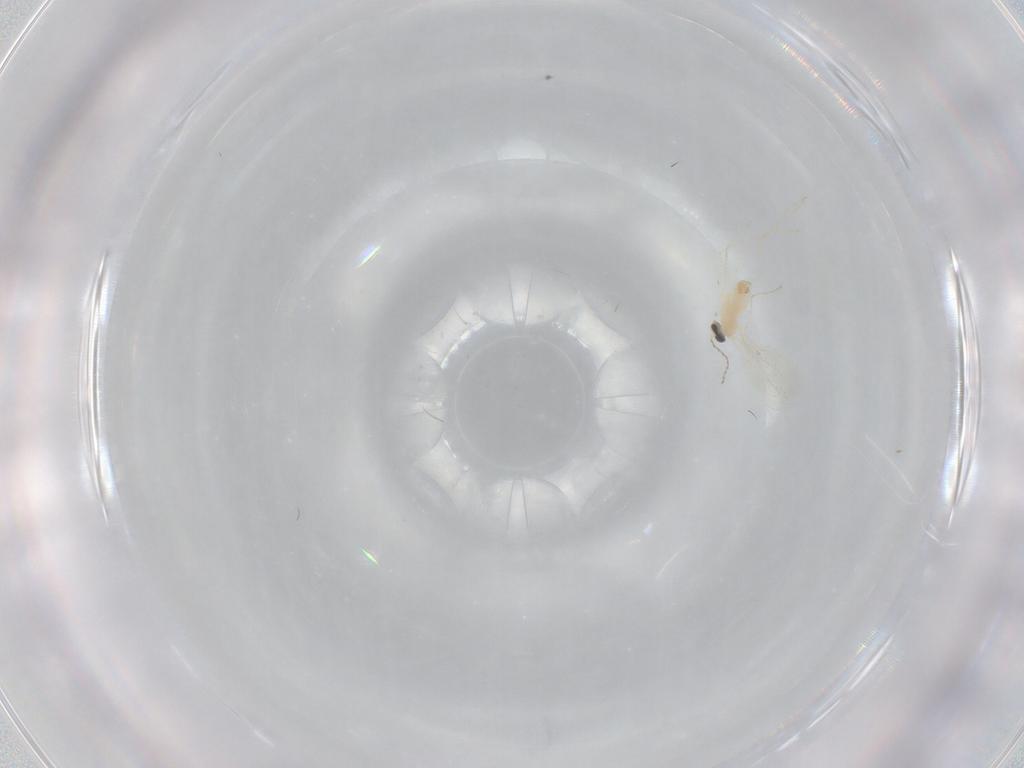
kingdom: Animalia
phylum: Arthropoda
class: Insecta
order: Diptera
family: Cecidomyiidae
